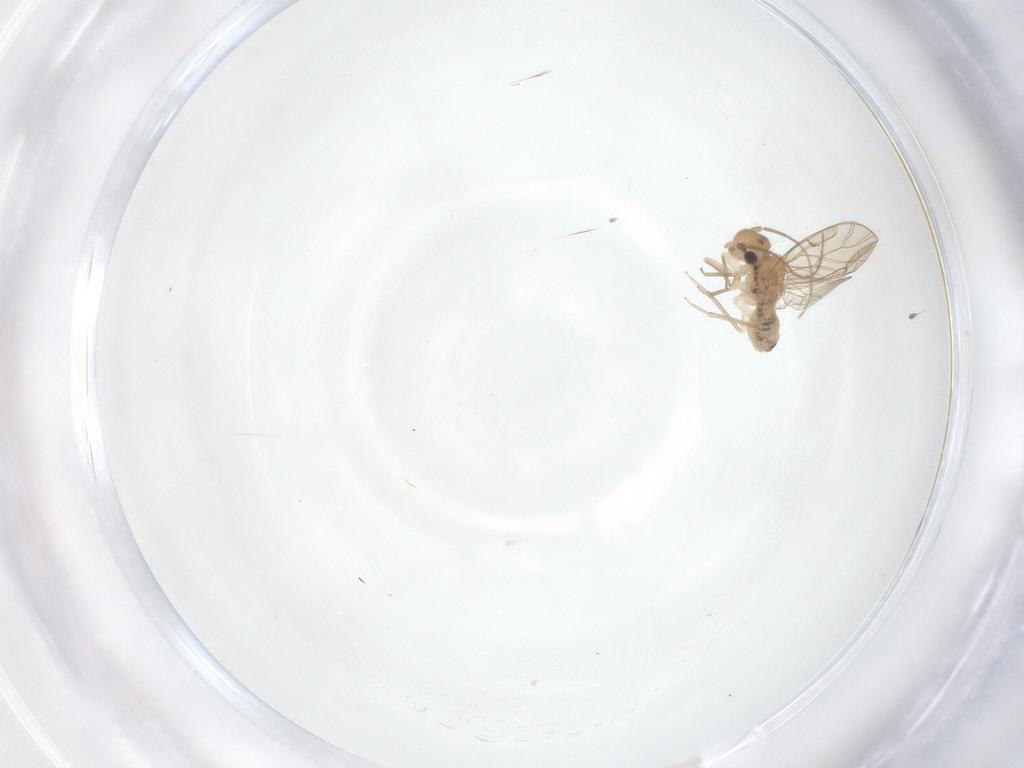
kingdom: Animalia
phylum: Arthropoda
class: Insecta
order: Psocodea
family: Ectopsocidae
